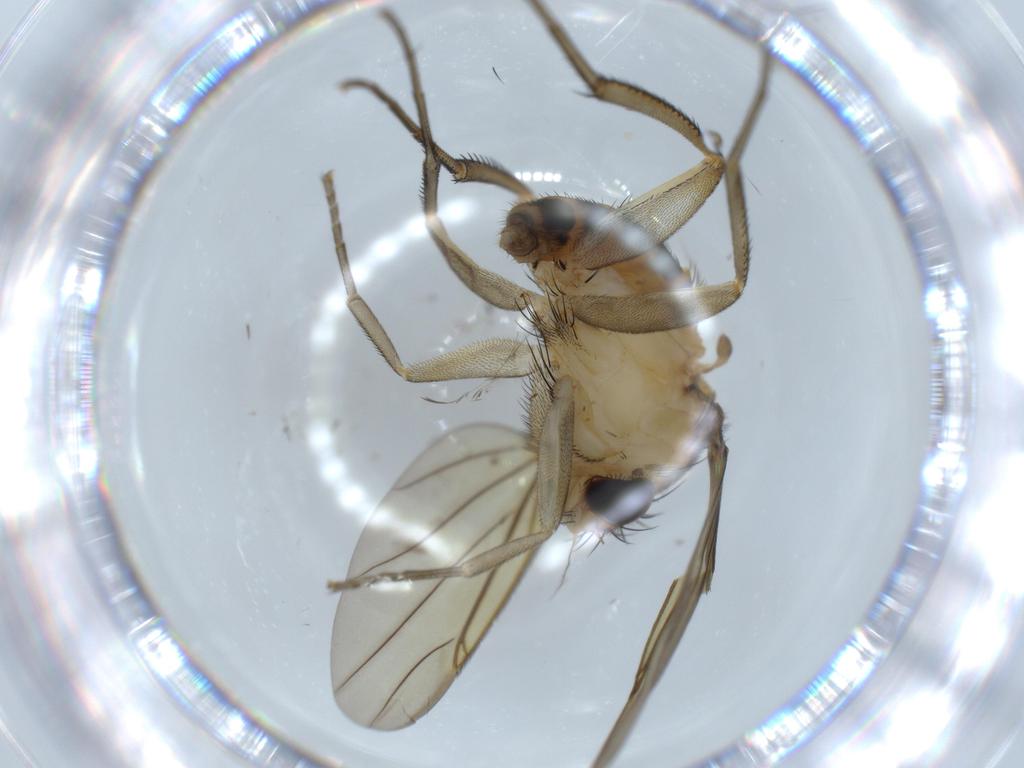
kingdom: Animalia
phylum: Arthropoda
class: Insecta
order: Diptera
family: Phoridae
